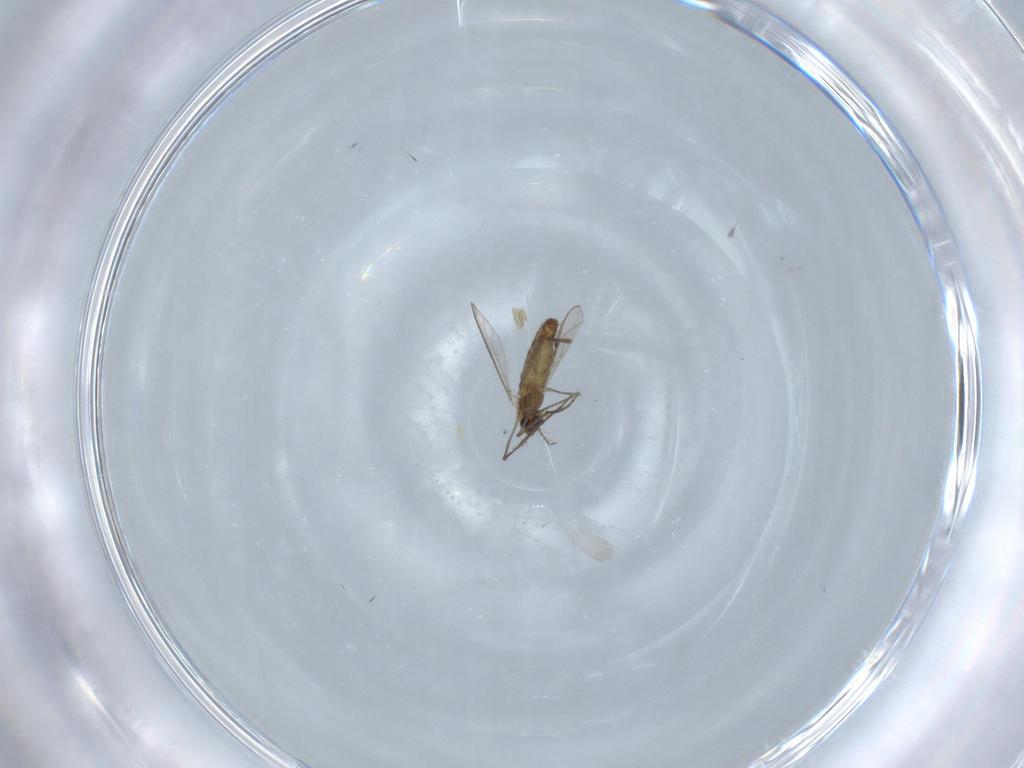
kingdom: Animalia
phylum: Arthropoda
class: Insecta
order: Diptera
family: Chironomidae
